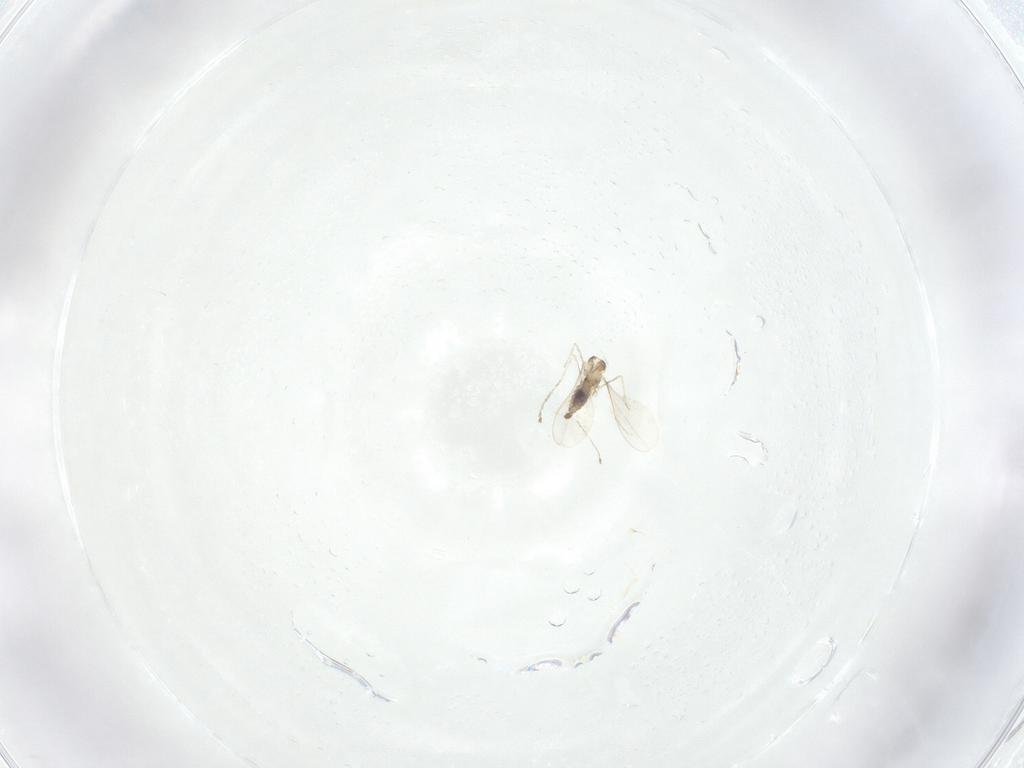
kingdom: Animalia
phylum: Arthropoda
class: Insecta
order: Diptera
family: Cecidomyiidae
